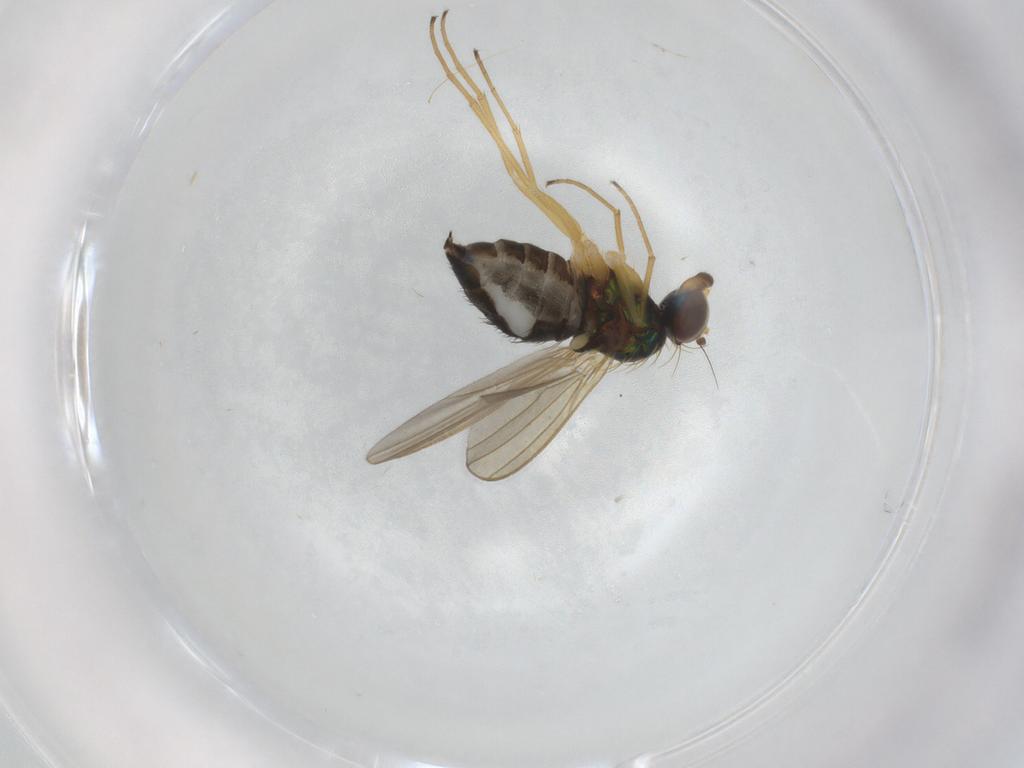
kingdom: Animalia
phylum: Arthropoda
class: Insecta
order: Diptera
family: Dolichopodidae
